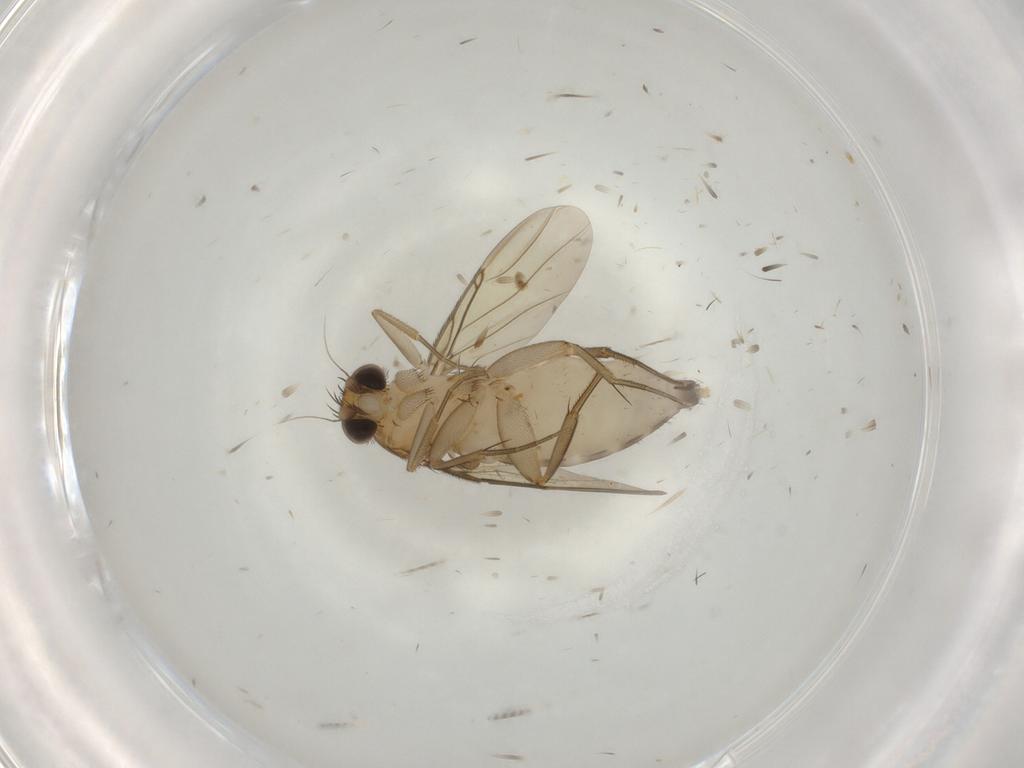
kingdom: Animalia
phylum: Arthropoda
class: Insecta
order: Diptera
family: Phoridae
